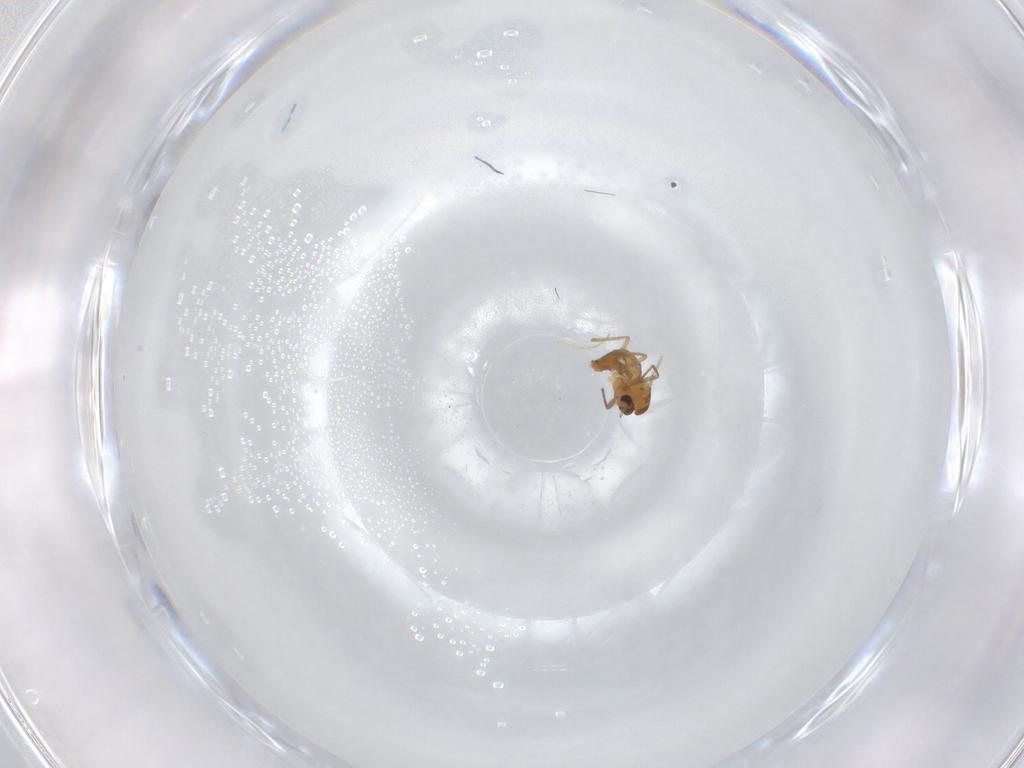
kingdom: Animalia
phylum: Arthropoda
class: Insecta
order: Diptera
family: Chironomidae
